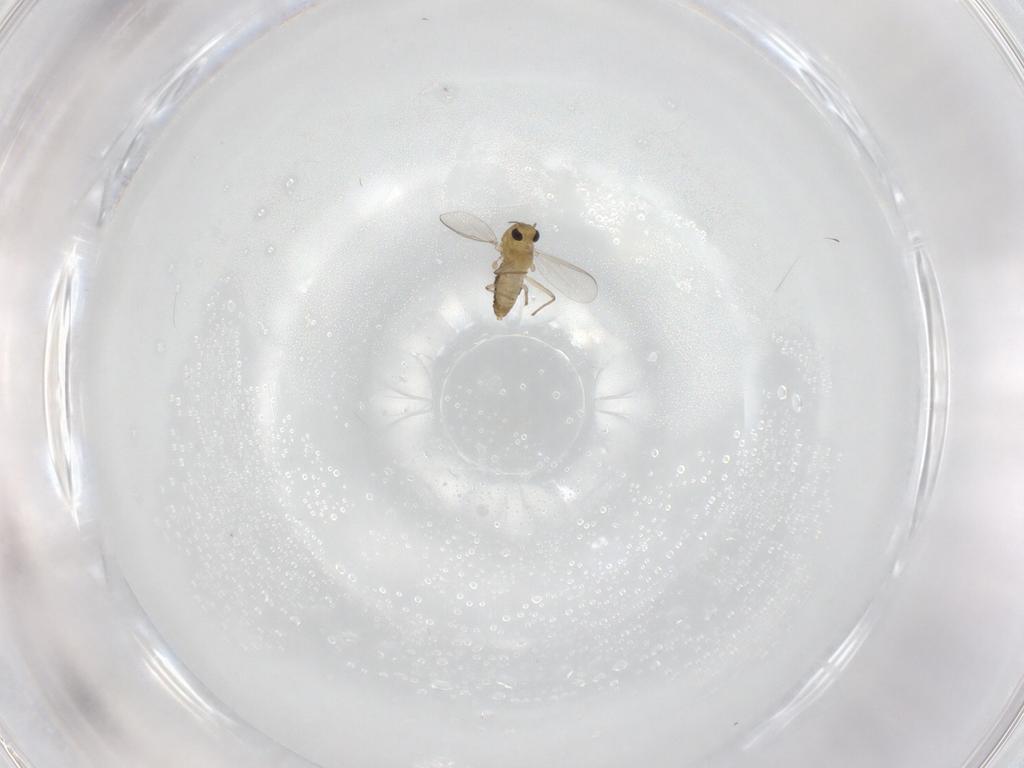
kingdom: Animalia
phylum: Arthropoda
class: Insecta
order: Diptera
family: Chironomidae
